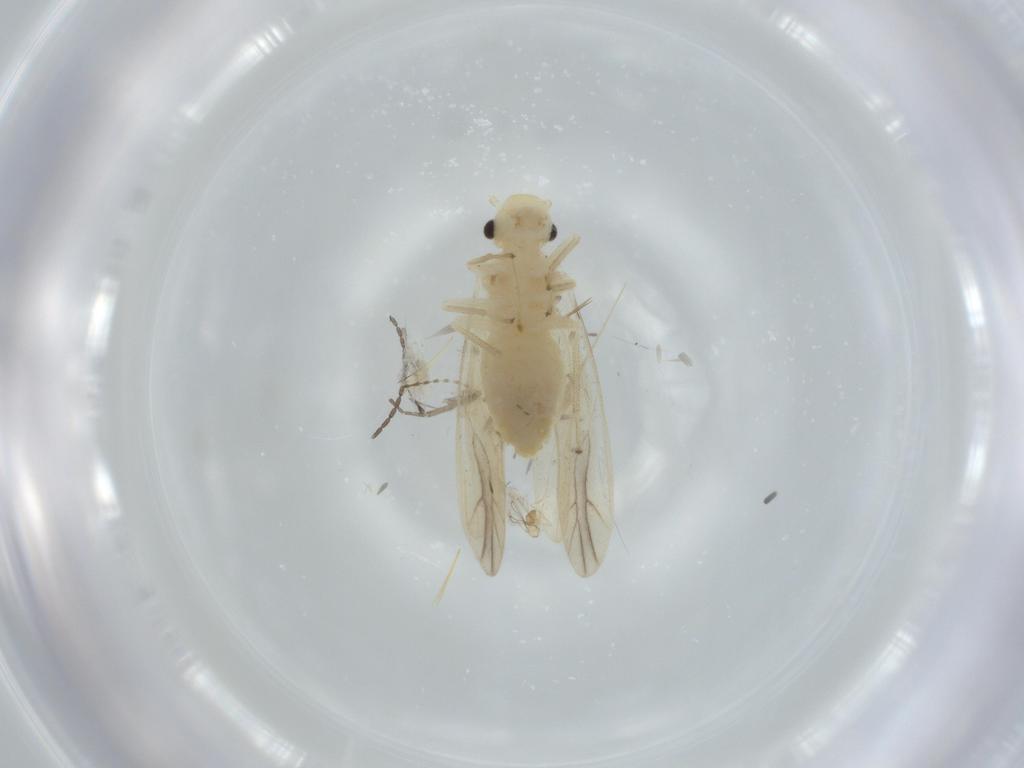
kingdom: Animalia
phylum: Arthropoda
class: Insecta
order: Psocodea
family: Caeciliusidae
